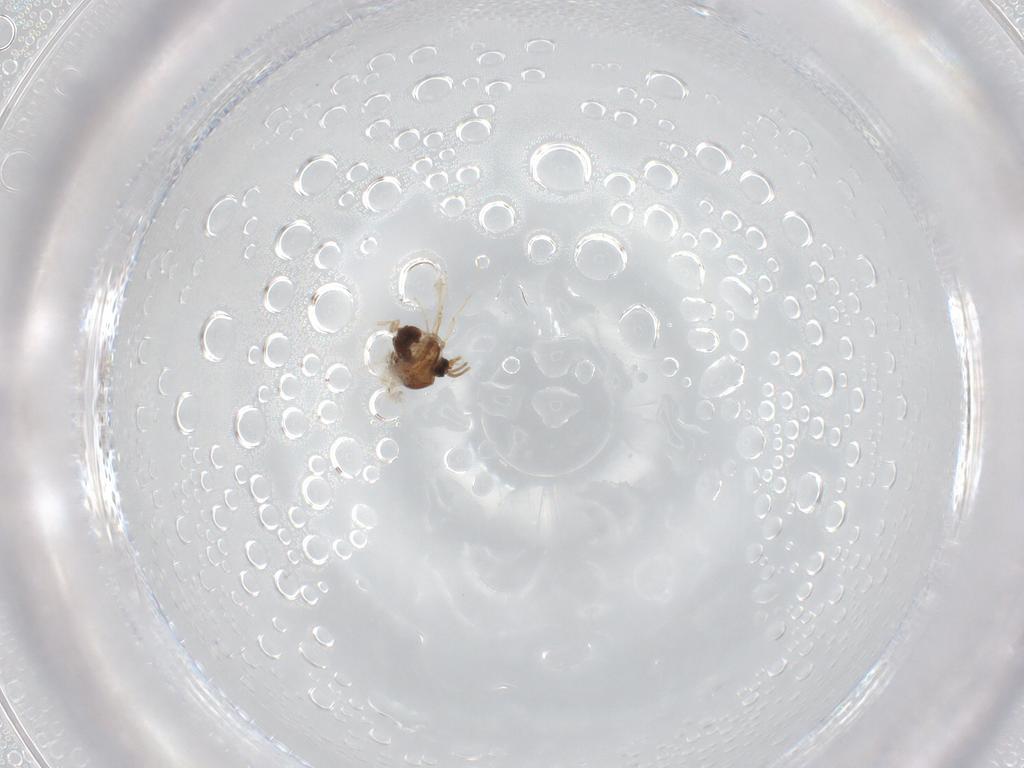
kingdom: Animalia
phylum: Arthropoda
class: Insecta
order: Diptera
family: Ceratopogonidae
